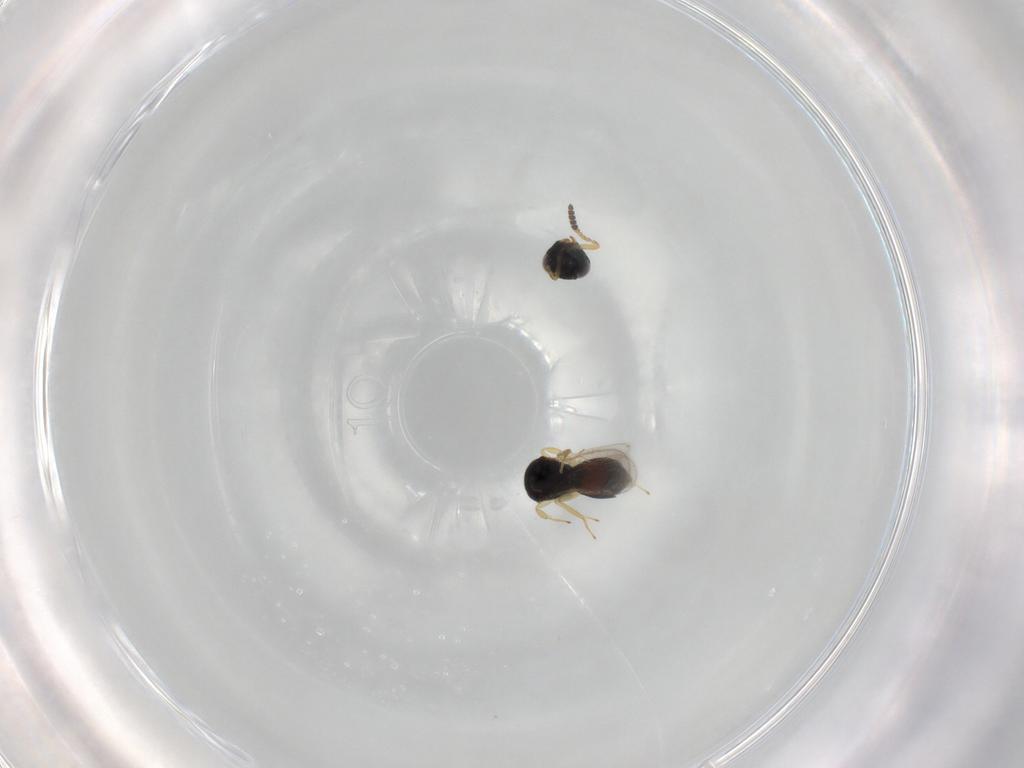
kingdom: Animalia
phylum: Arthropoda
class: Insecta
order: Hymenoptera
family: Scelionidae
